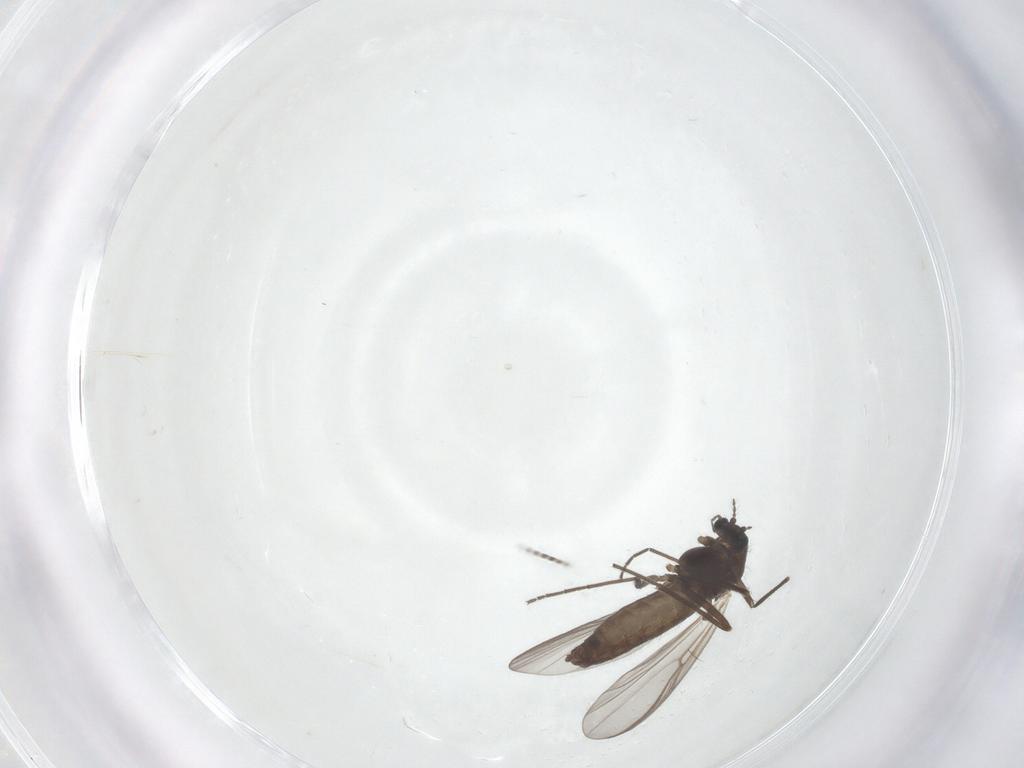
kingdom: Animalia
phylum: Arthropoda
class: Insecta
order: Diptera
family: Chironomidae
